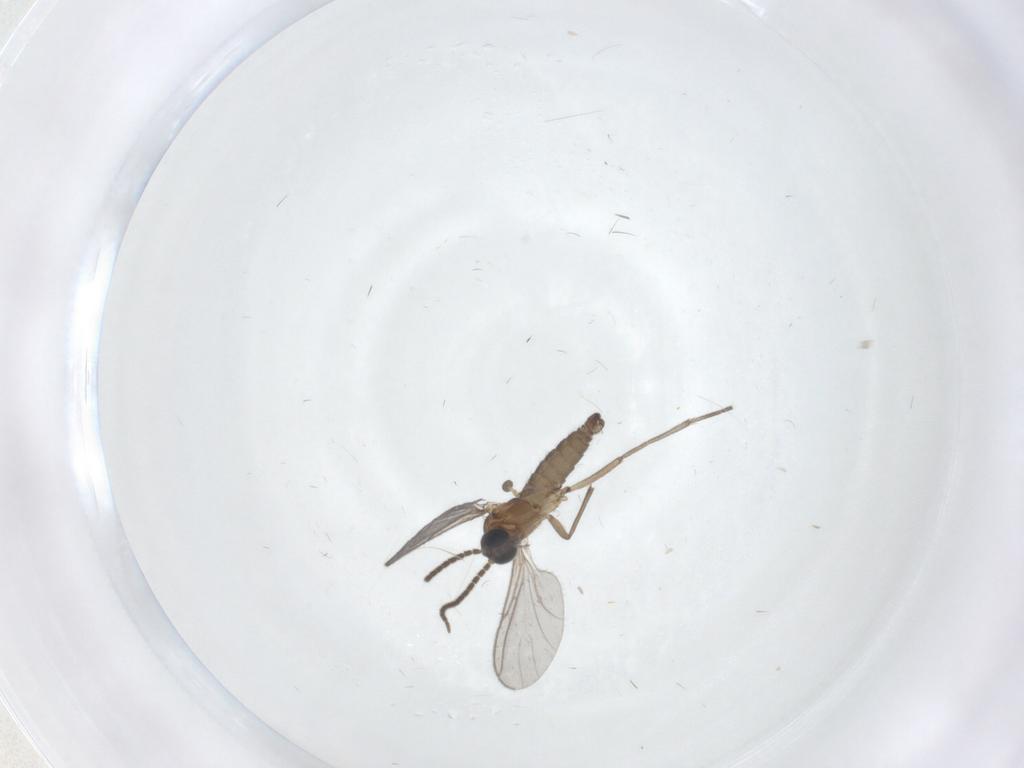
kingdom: Animalia
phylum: Arthropoda
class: Insecta
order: Diptera
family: Sciaridae
